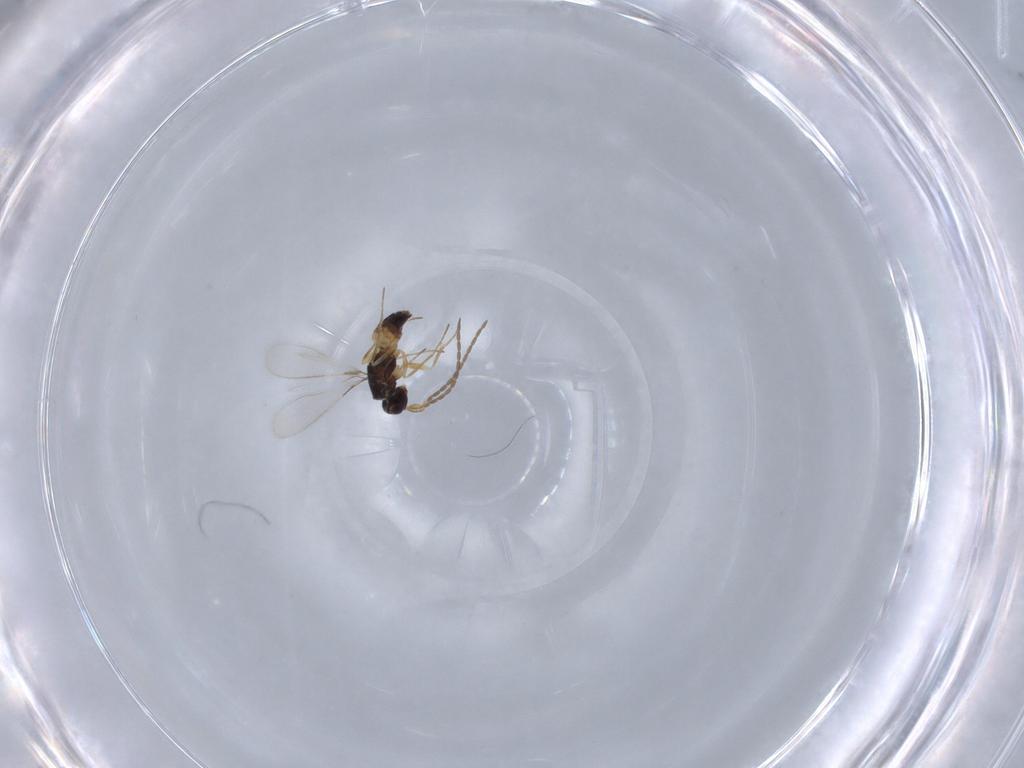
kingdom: Animalia
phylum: Arthropoda
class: Insecta
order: Hymenoptera
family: Mymaridae
